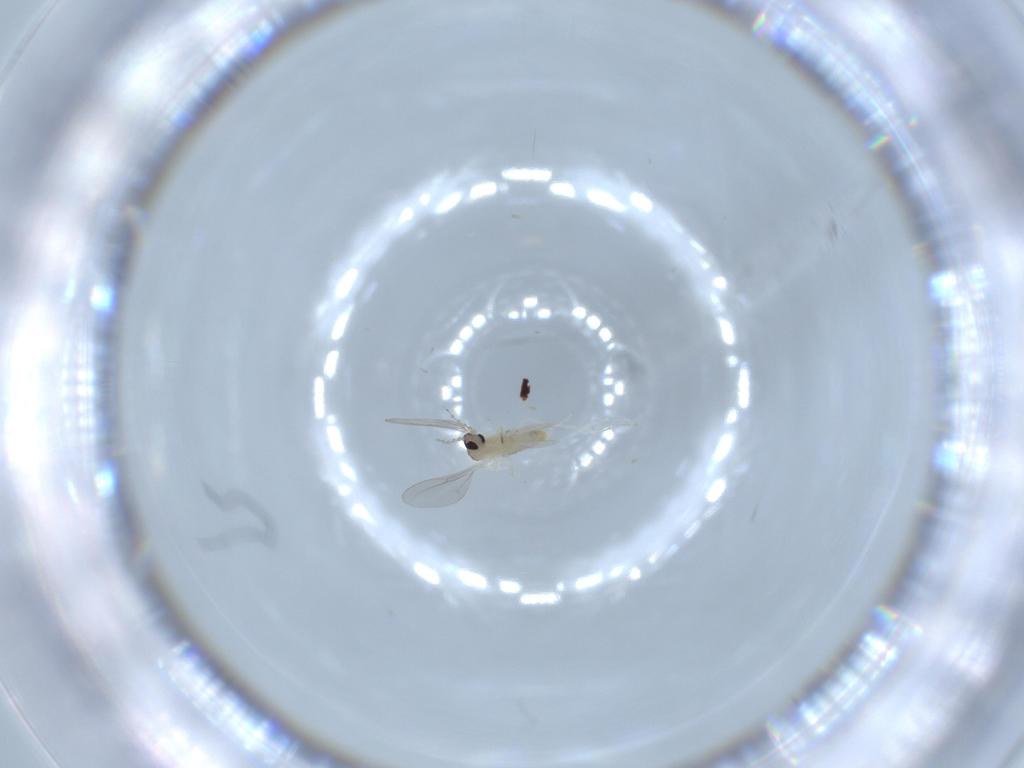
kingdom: Animalia
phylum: Arthropoda
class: Insecta
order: Diptera
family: Cecidomyiidae
